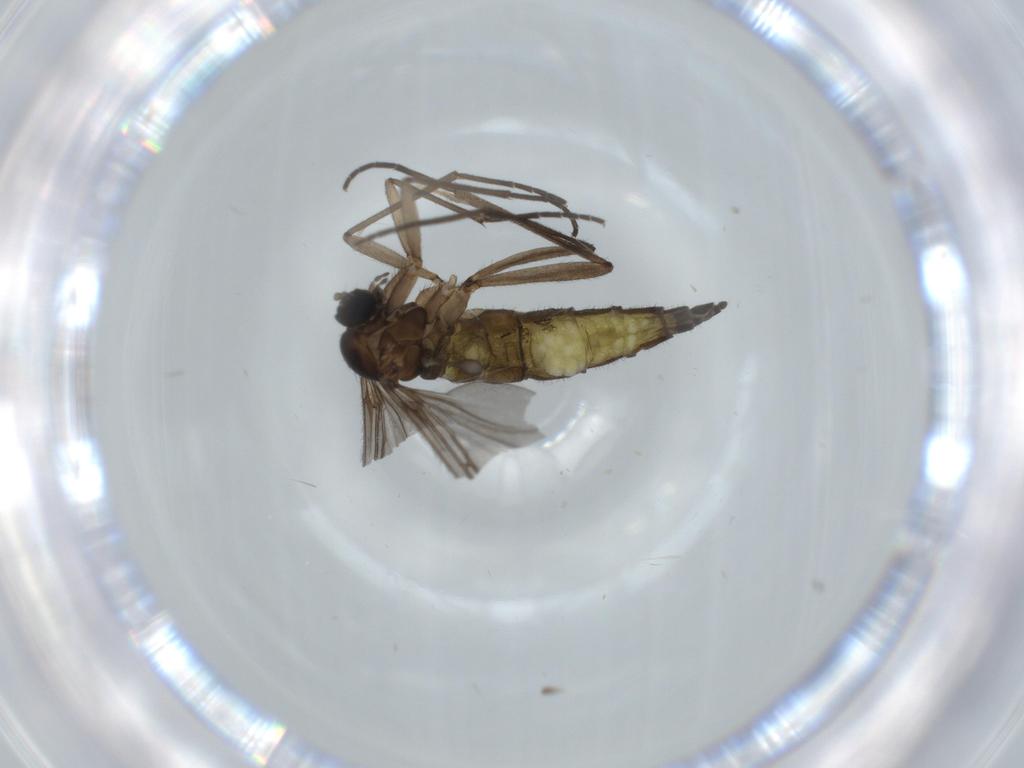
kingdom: Animalia
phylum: Arthropoda
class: Insecta
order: Diptera
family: Sciaridae
